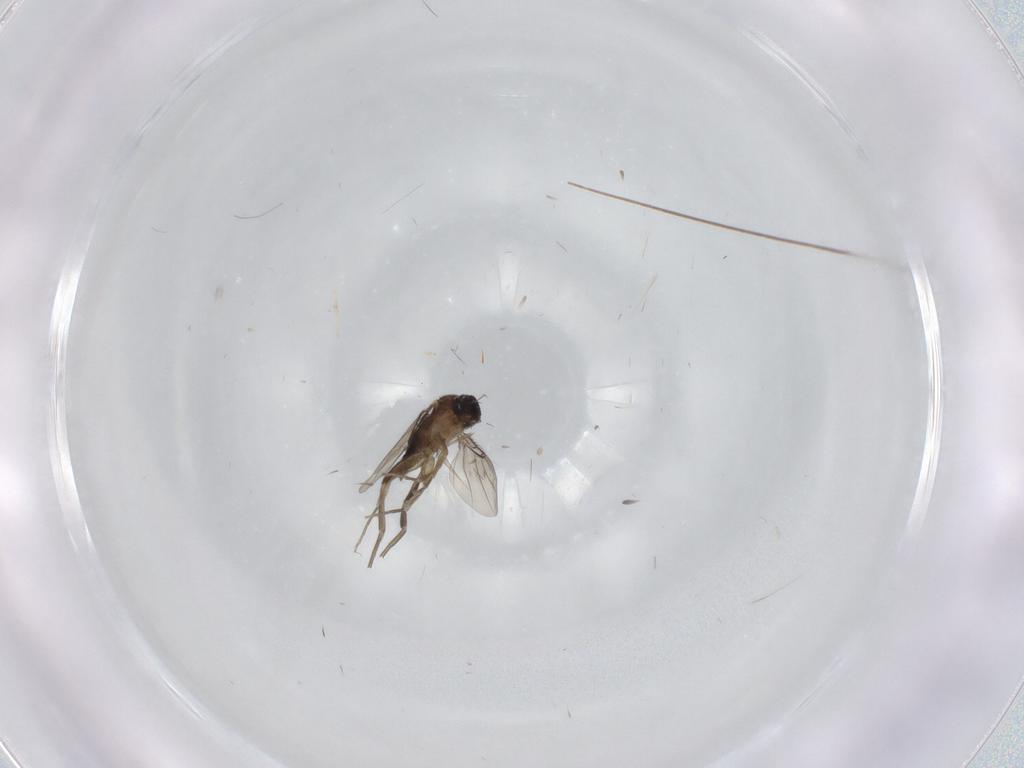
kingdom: Animalia
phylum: Arthropoda
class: Insecta
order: Diptera
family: Phoridae
